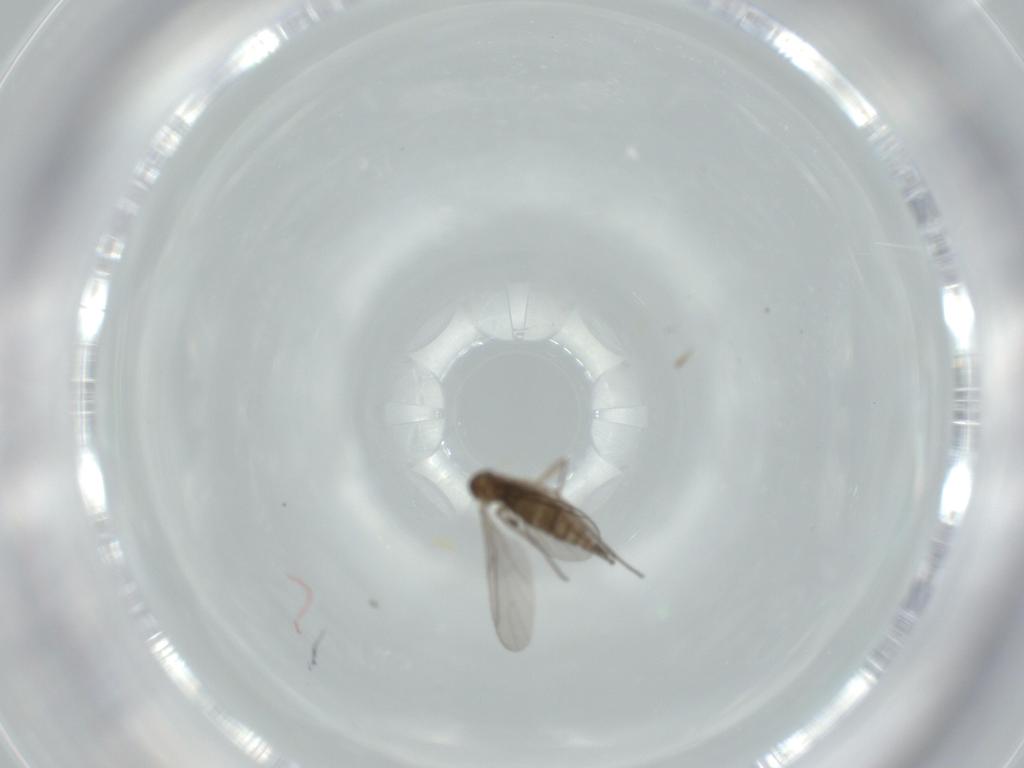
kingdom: Animalia
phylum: Arthropoda
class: Insecta
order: Diptera
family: Sciaridae
